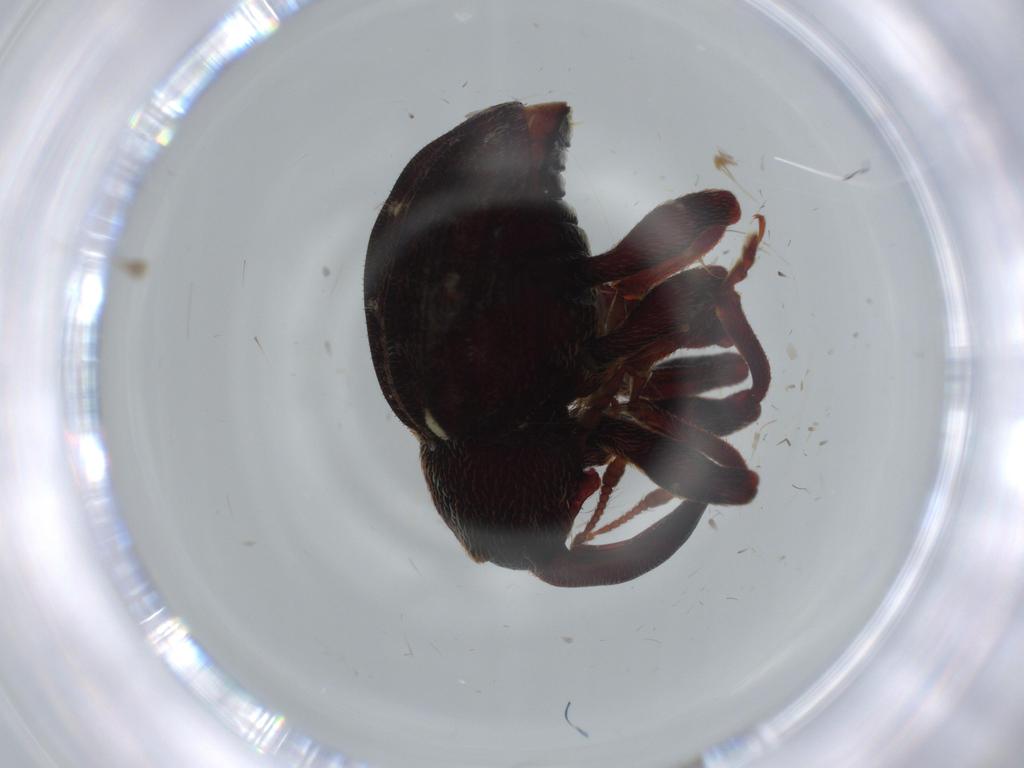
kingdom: Animalia
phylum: Arthropoda
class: Insecta
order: Coleoptera
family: Curculionidae
